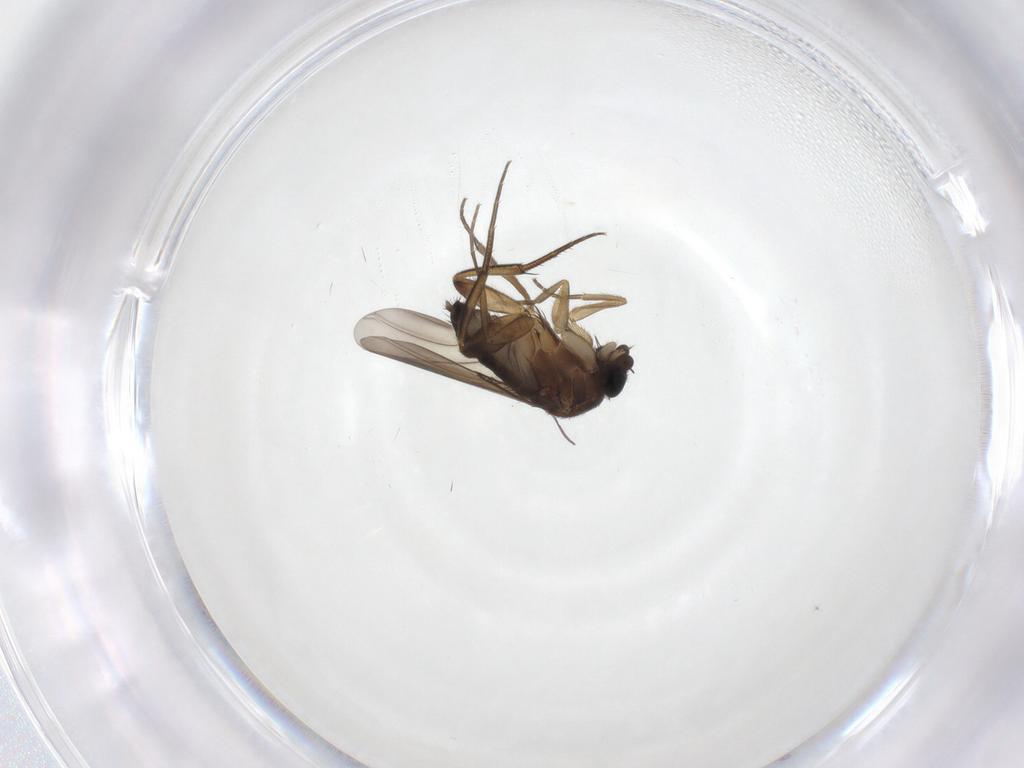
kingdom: Animalia
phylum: Arthropoda
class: Insecta
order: Diptera
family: Phoridae
